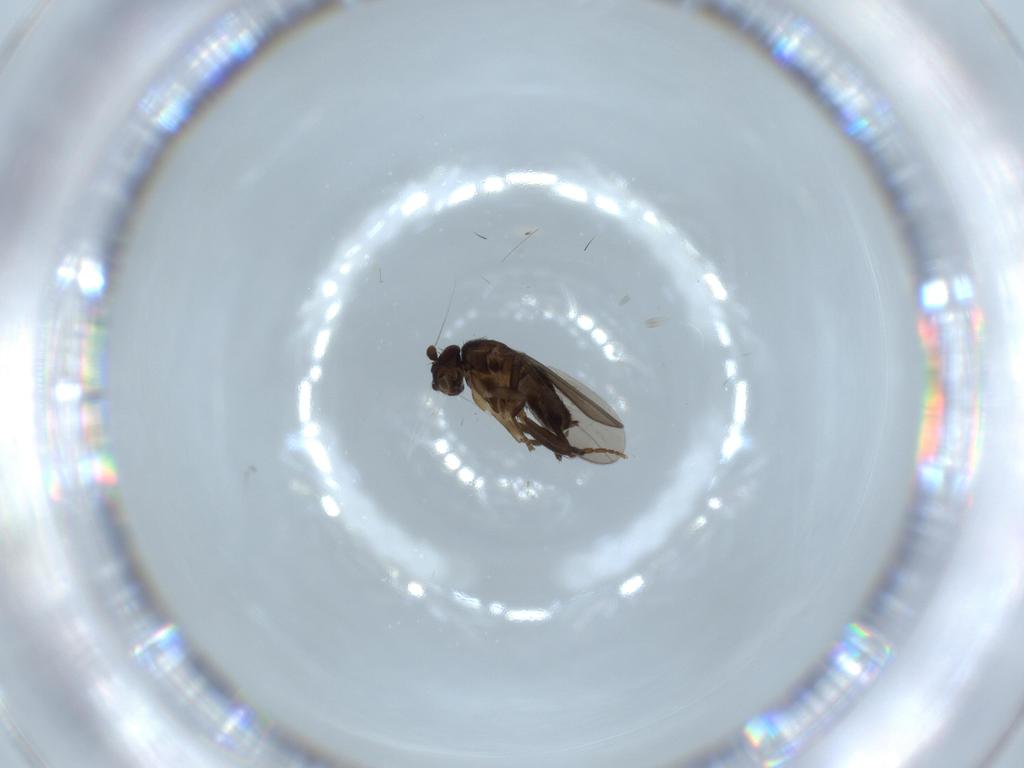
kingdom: Animalia
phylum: Arthropoda
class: Insecta
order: Diptera
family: Sphaeroceridae
